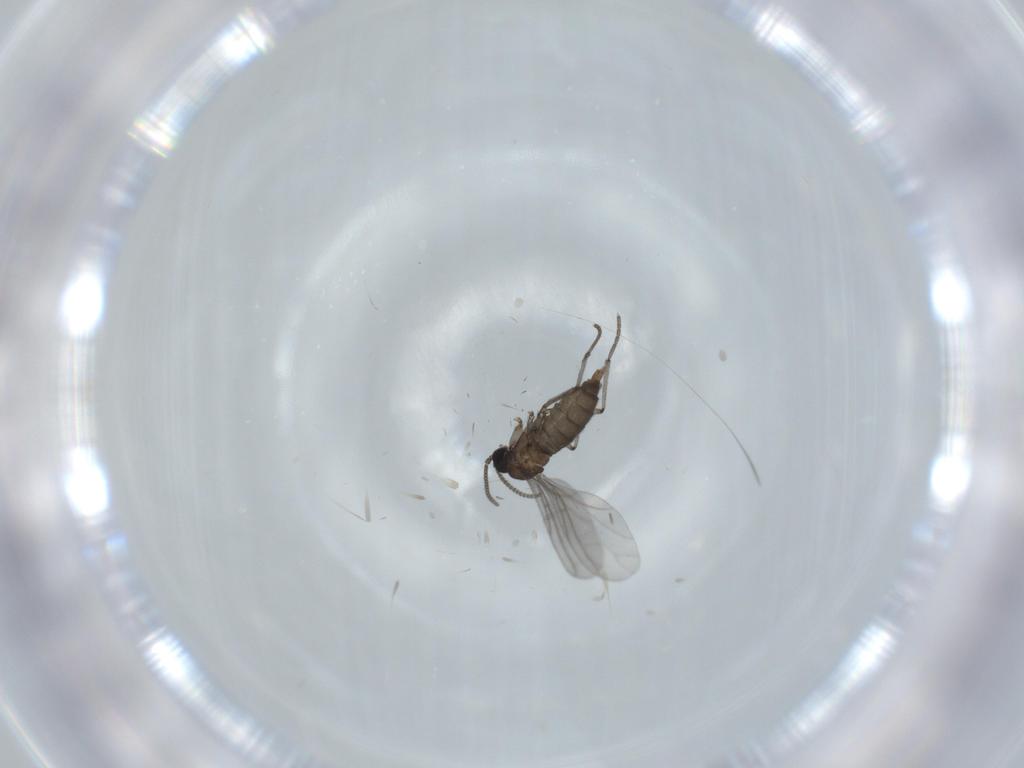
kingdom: Animalia
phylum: Arthropoda
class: Insecta
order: Diptera
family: Sciaridae
